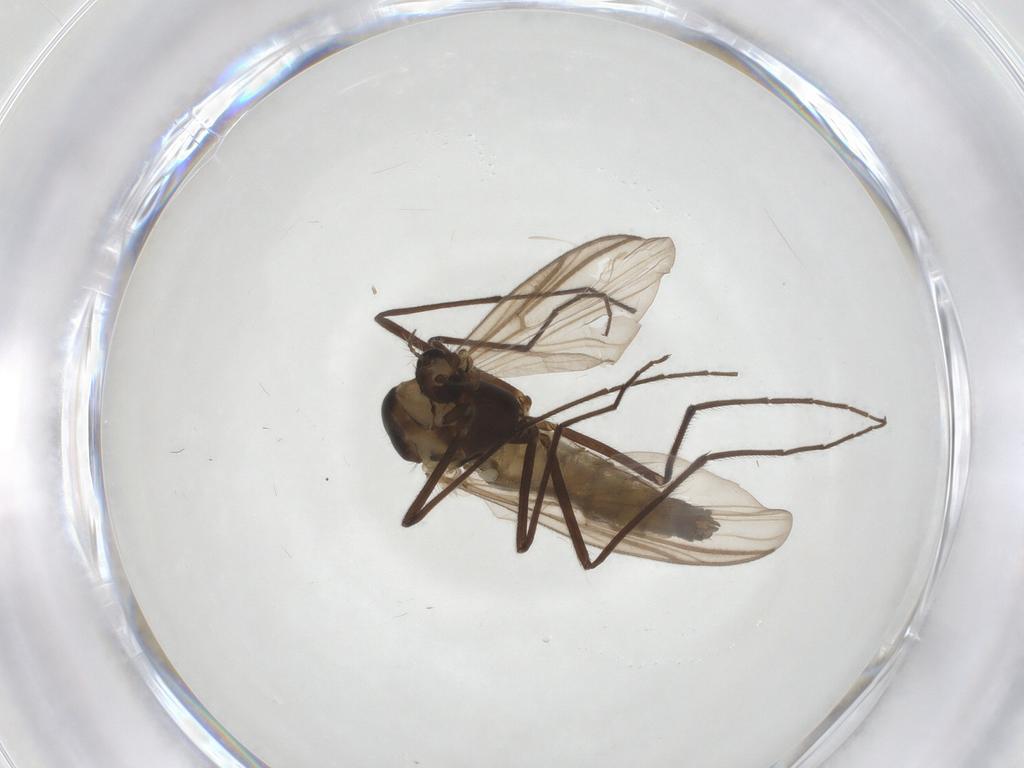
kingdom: Animalia
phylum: Arthropoda
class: Insecta
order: Diptera
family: Chironomidae
